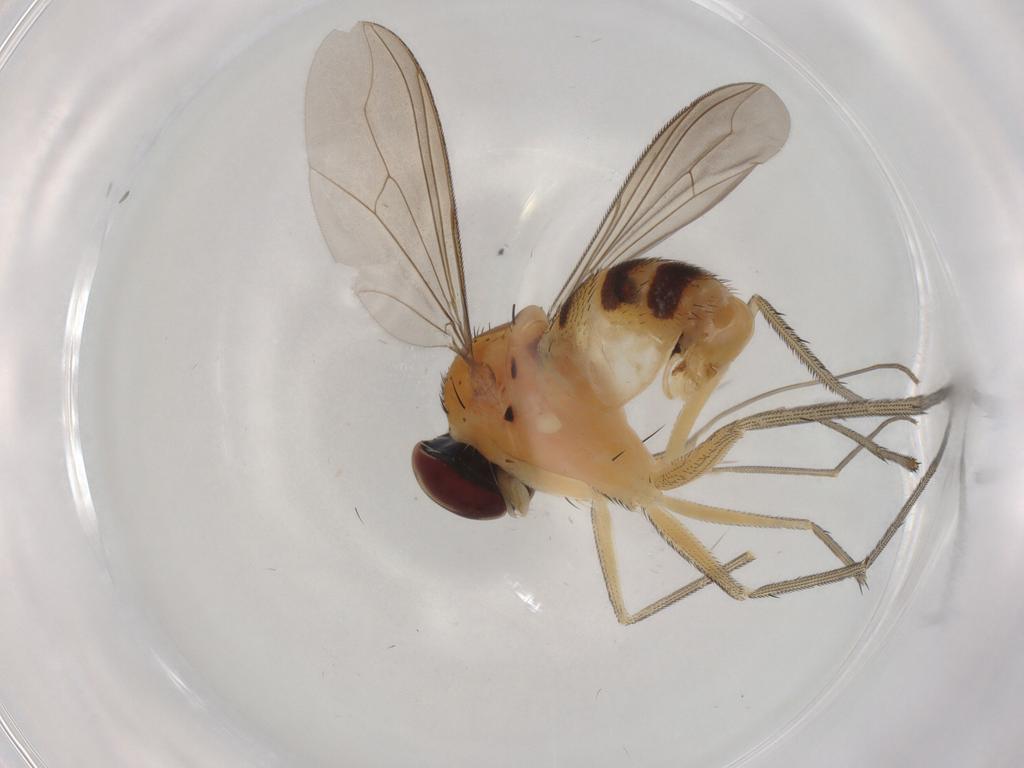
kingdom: Animalia
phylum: Arthropoda
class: Insecta
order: Diptera
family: Dolichopodidae
